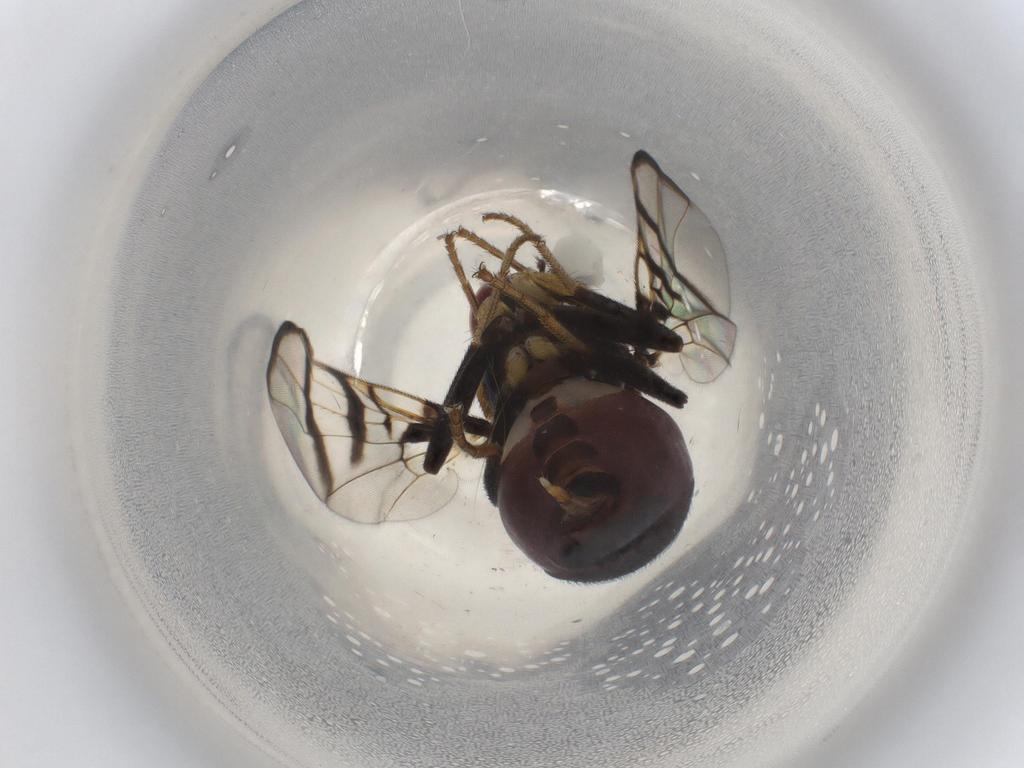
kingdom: Animalia
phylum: Arthropoda
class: Insecta
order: Diptera
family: Platystomatidae
